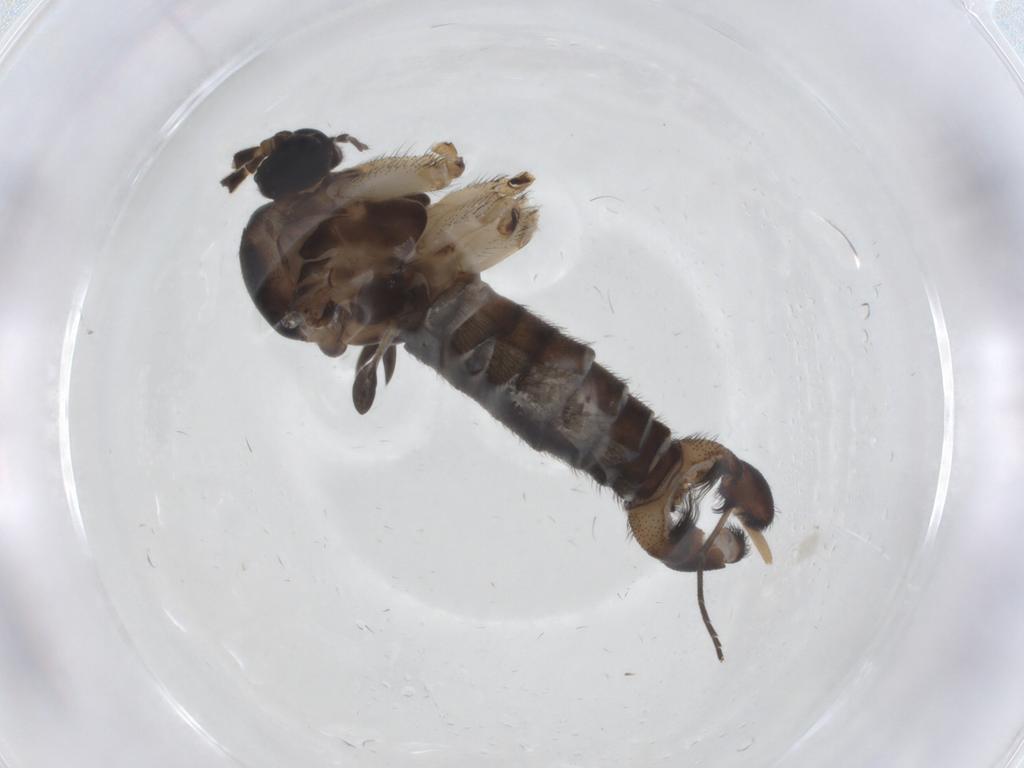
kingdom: Animalia
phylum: Arthropoda
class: Insecta
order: Diptera
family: Sciaridae
